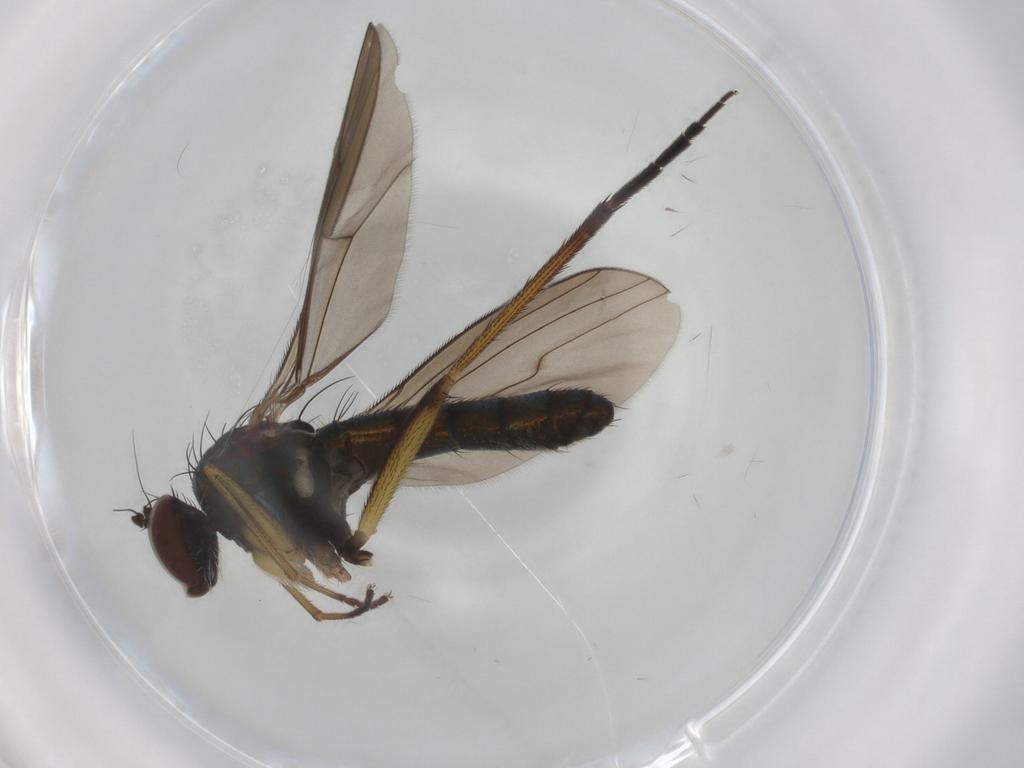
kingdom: Animalia
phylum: Arthropoda
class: Insecta
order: Diptera
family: Dolichopodidae
